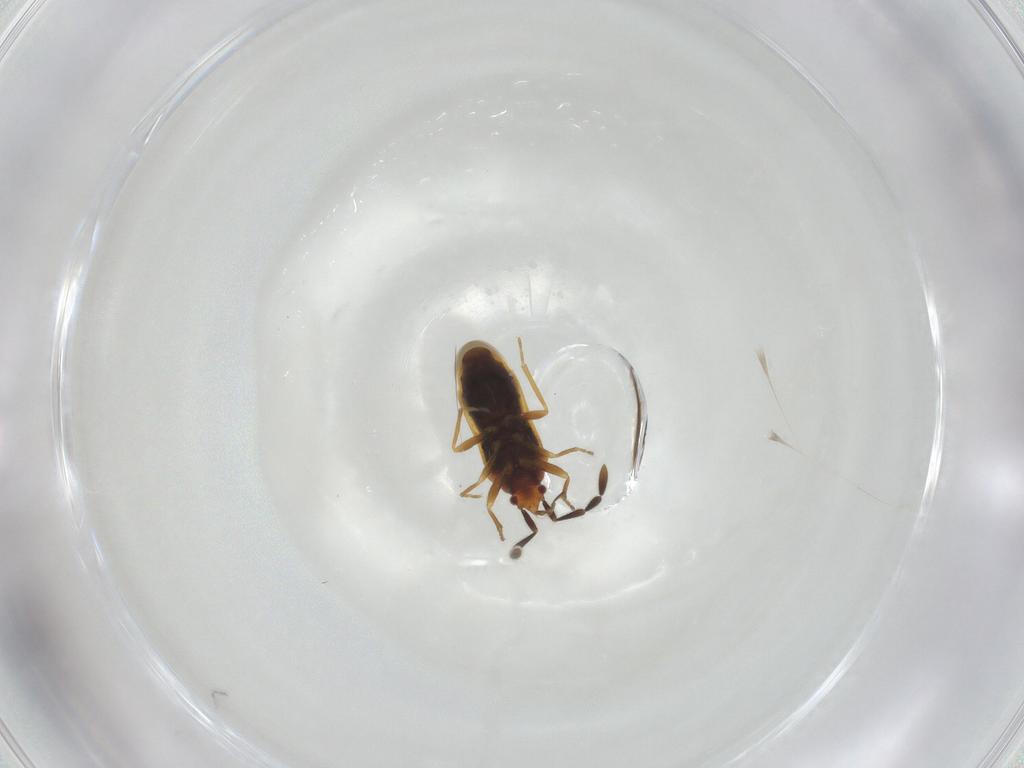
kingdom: Animalia
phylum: Arthropoda
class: Insecta
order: Hemiptera
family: Rhyparochromidae
